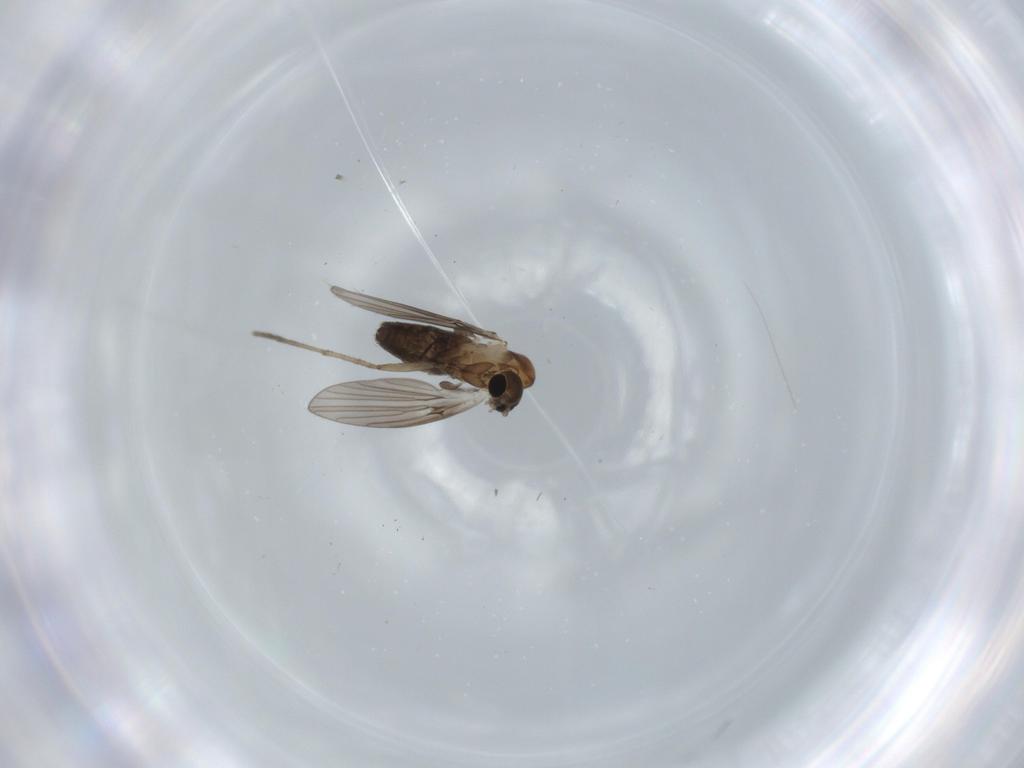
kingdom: Animalia
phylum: Arthropoda
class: Insecta
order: Diptera
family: Psychodidae
